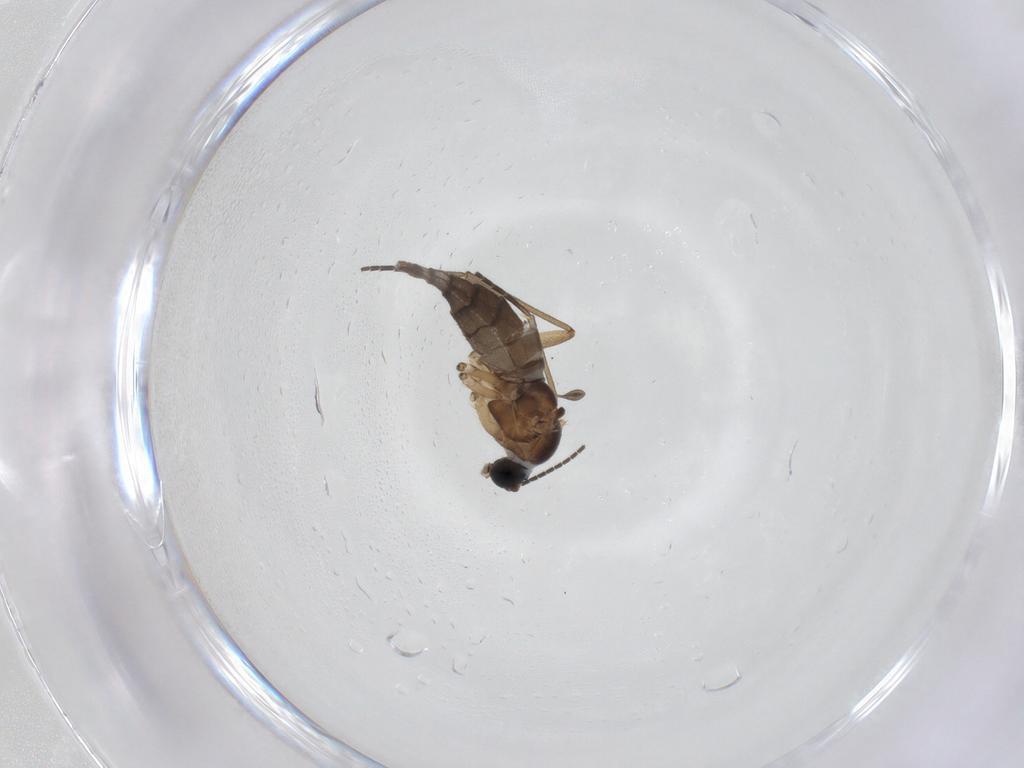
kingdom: Animalia
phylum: Arthropoda
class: Insecta
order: Diptera
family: Sciaridae
